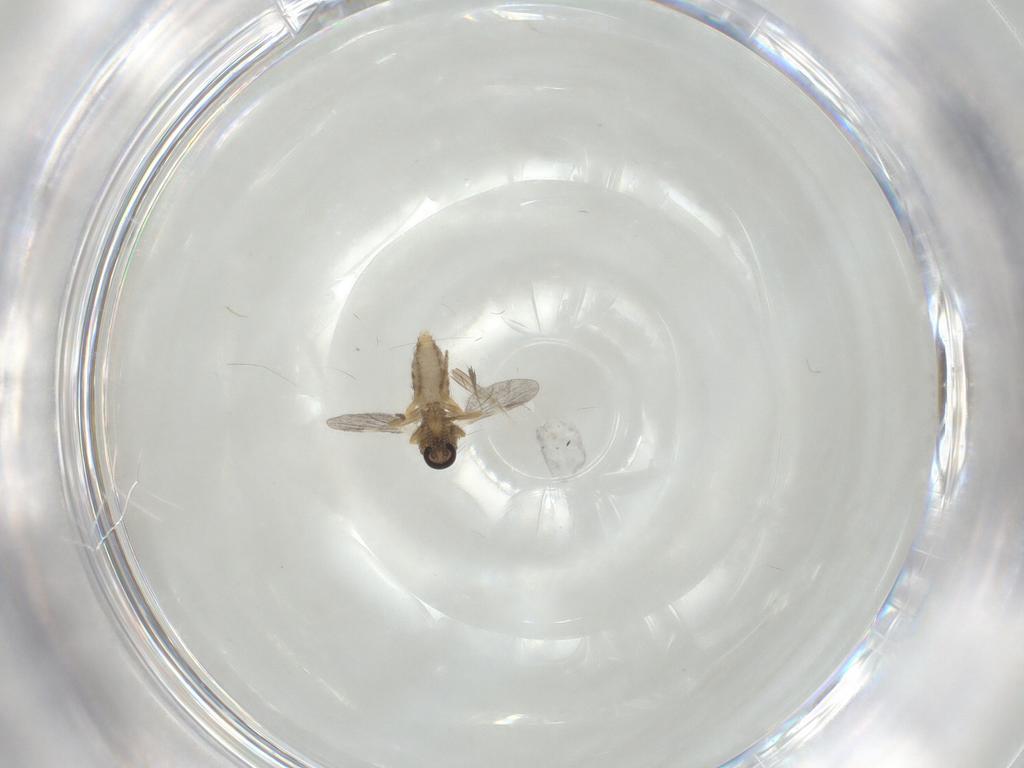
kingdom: Animalia
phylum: Arthropoda
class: Insecta
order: Diptera
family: Ceratopogonidae
